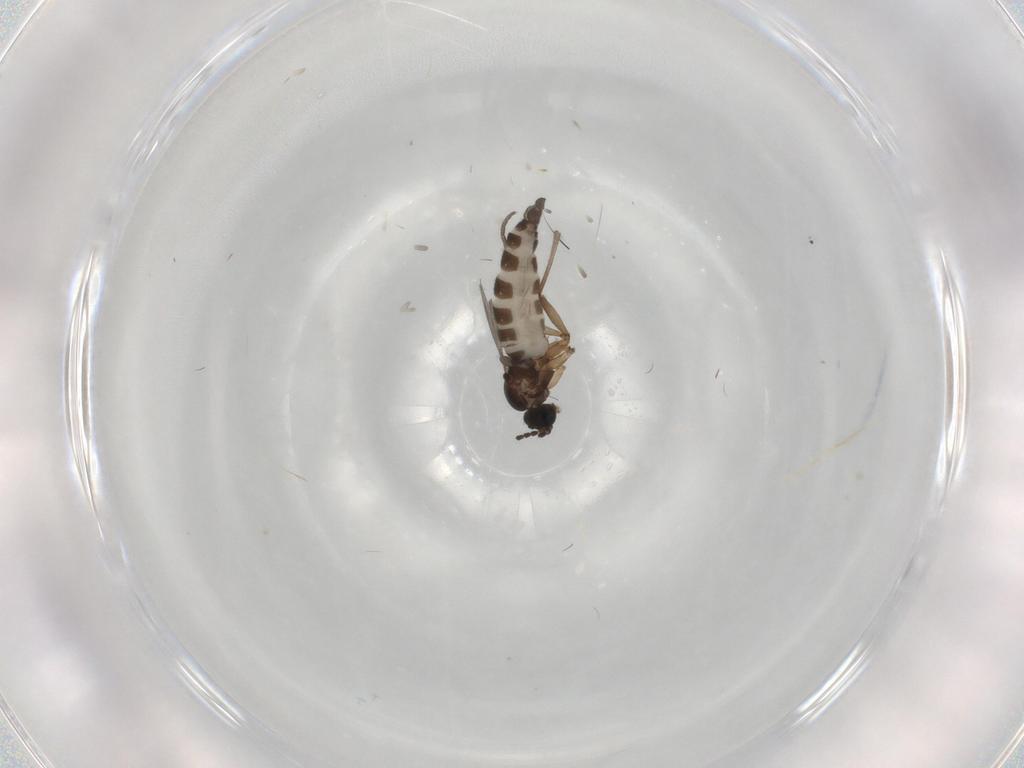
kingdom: Animalia
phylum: Arthropoda
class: Insecta
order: Diptera
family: Sciaridae
